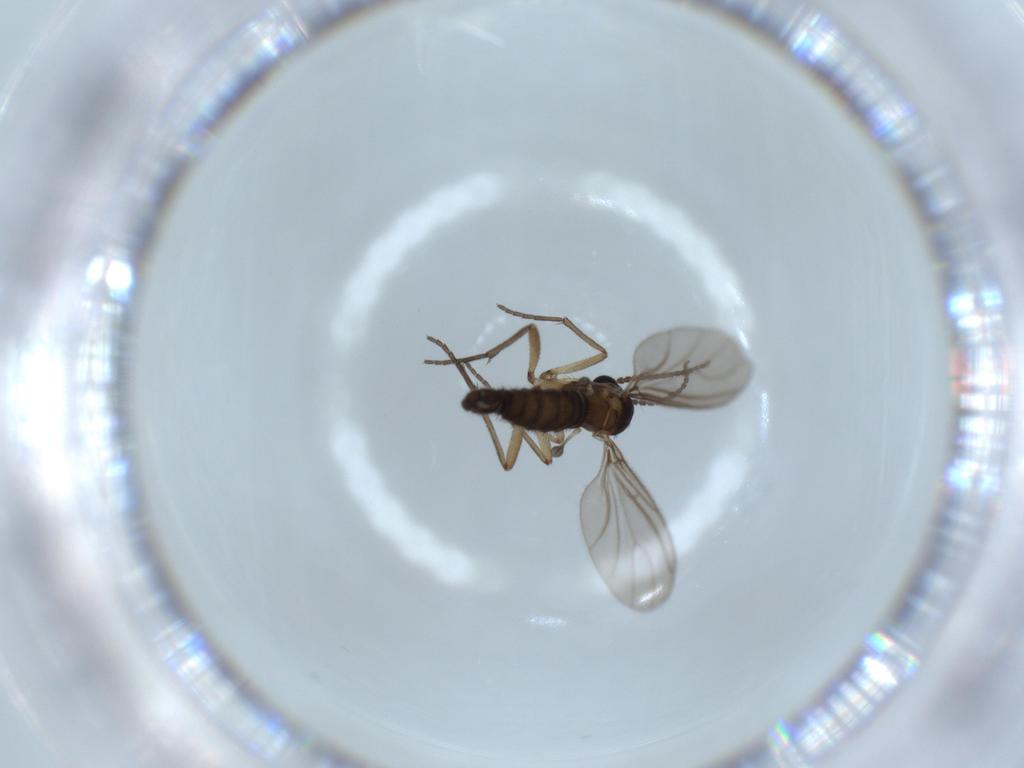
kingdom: Animalia
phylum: Arthropoda
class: Insecta
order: Diptera
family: Sciaridae
